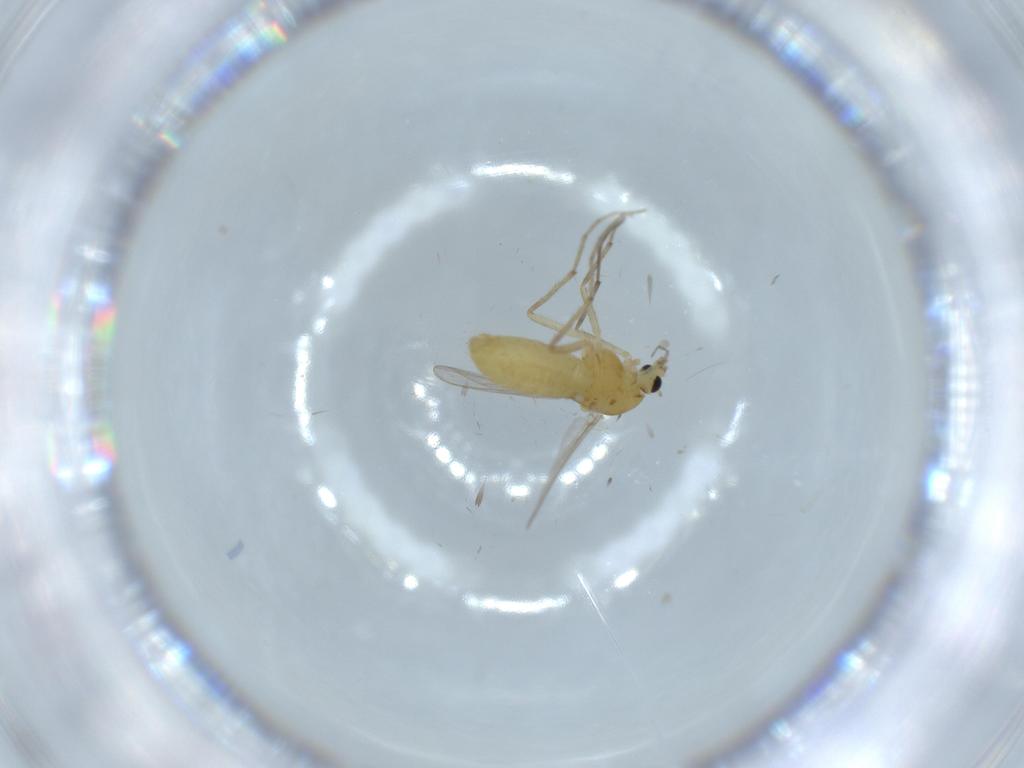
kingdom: Animalia
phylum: Arthropoda
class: Insecta
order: Diptera
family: Chironomidae
